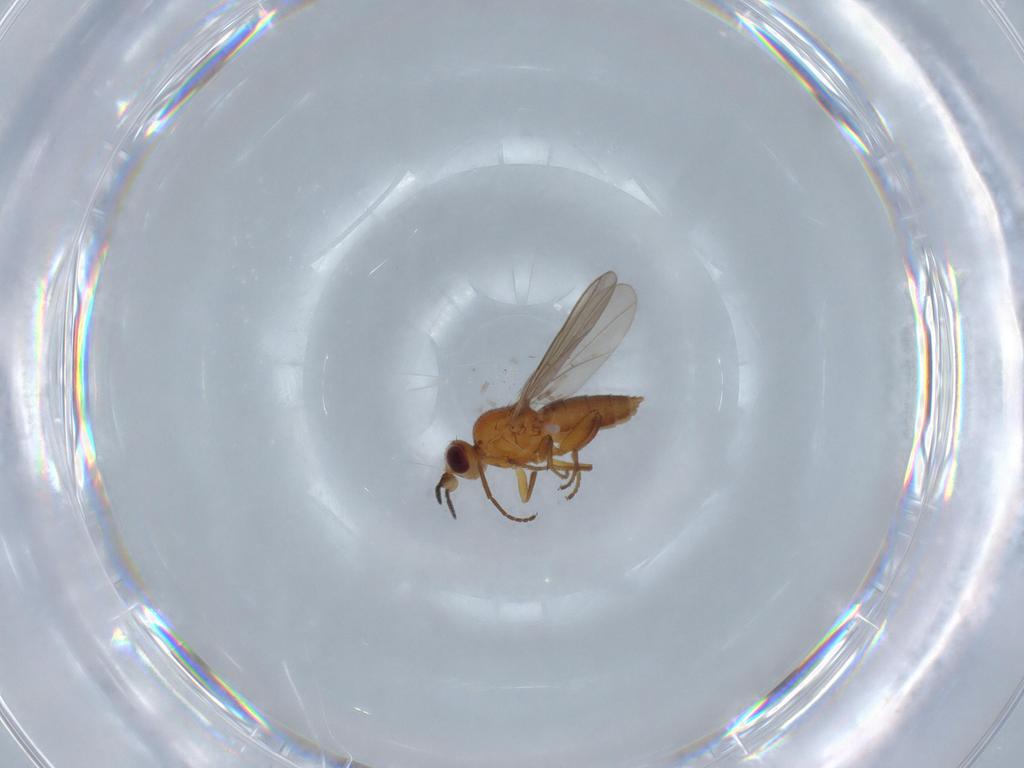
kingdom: Animalia
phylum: Arthropoda
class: Insecta
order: Diptera
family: Chloropidae
